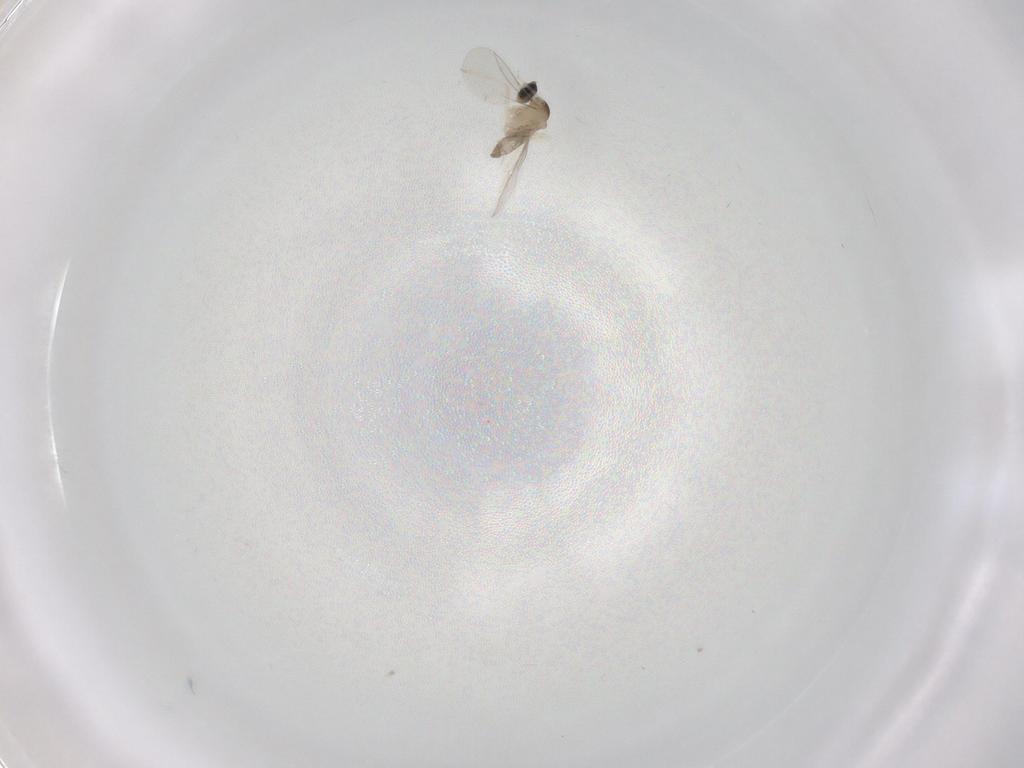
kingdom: Animalia
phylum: Arthropoda
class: Insecta
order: Diptera
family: Cecidomyiidae
